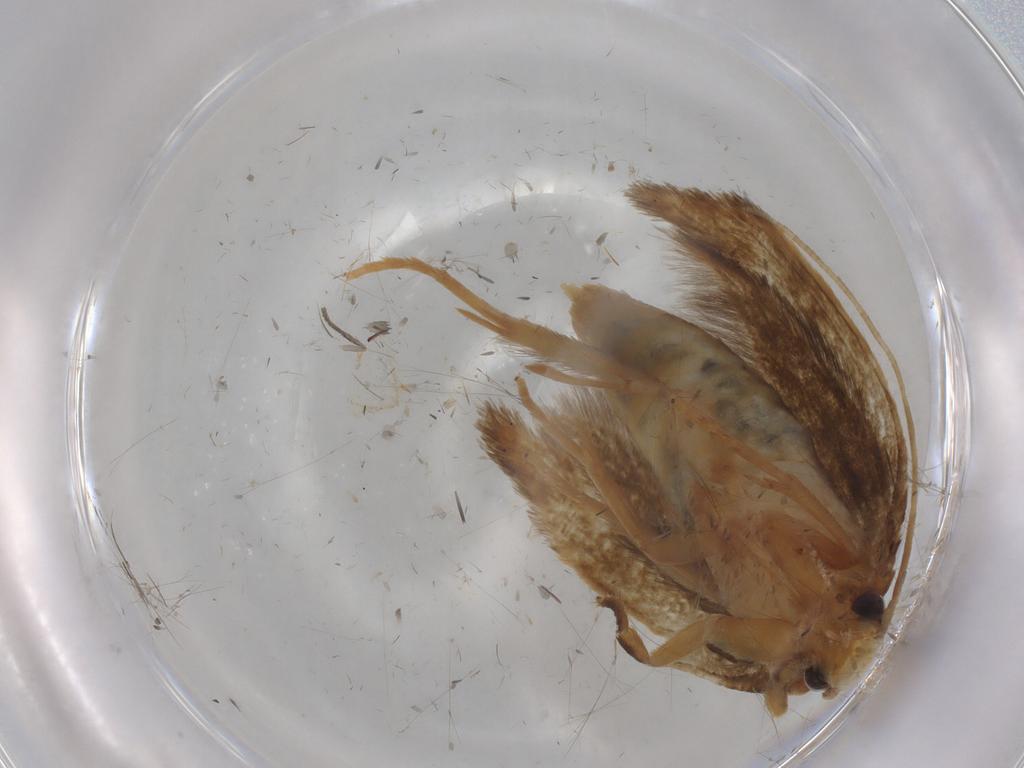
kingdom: Animalia
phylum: Arthropoda
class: Insecta
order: Lepidoptera
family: Tineidae
